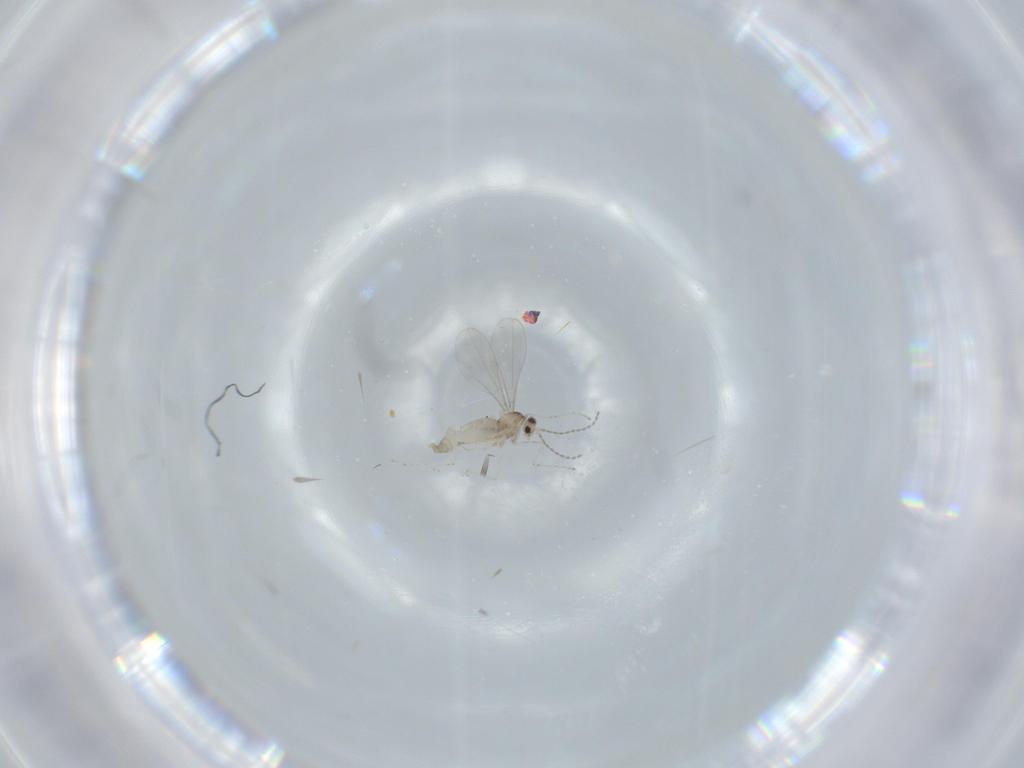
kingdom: Animalia
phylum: Arthropoda
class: Insecta
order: Diptera
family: Cecidomyiidae
